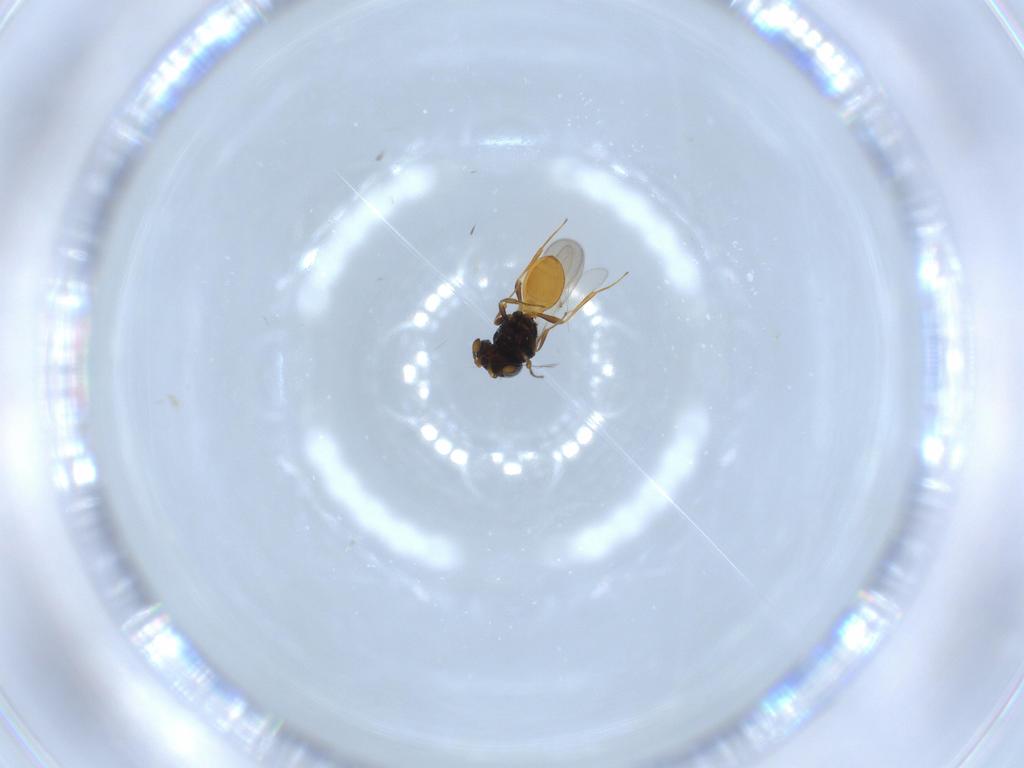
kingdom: Animalia
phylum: Arthropoda
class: Insecta
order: Hymenoptera
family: Scelionidae
